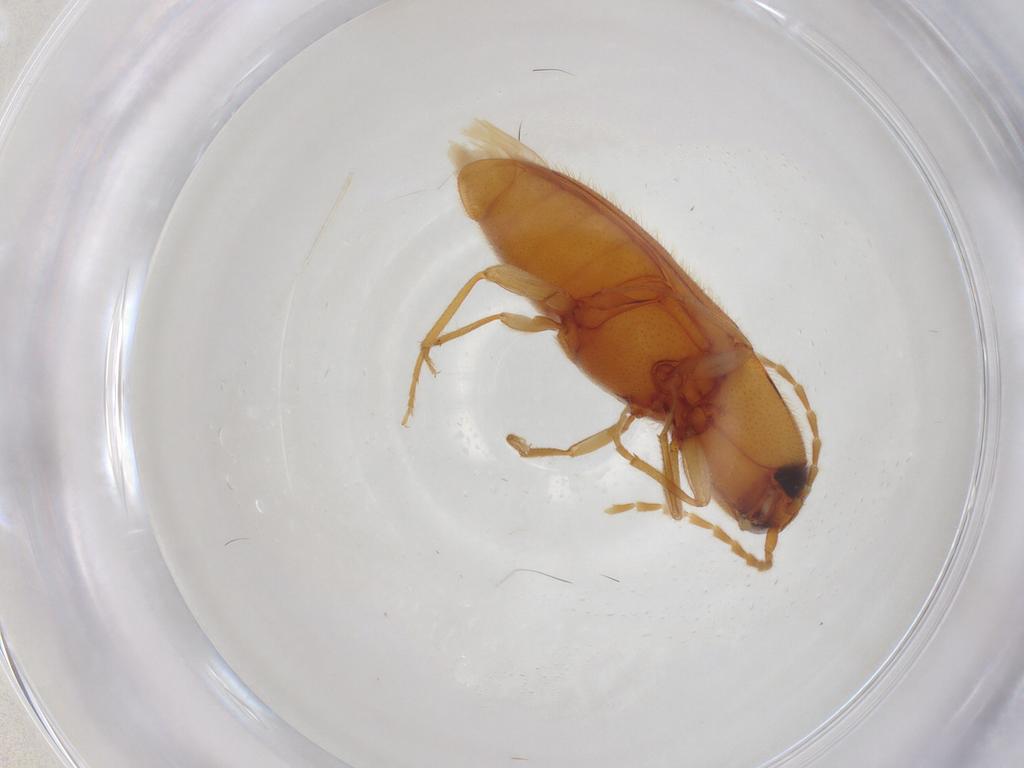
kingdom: Animalia
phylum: Arthropoda
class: Insecta
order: Coleoptera
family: Elateridae
